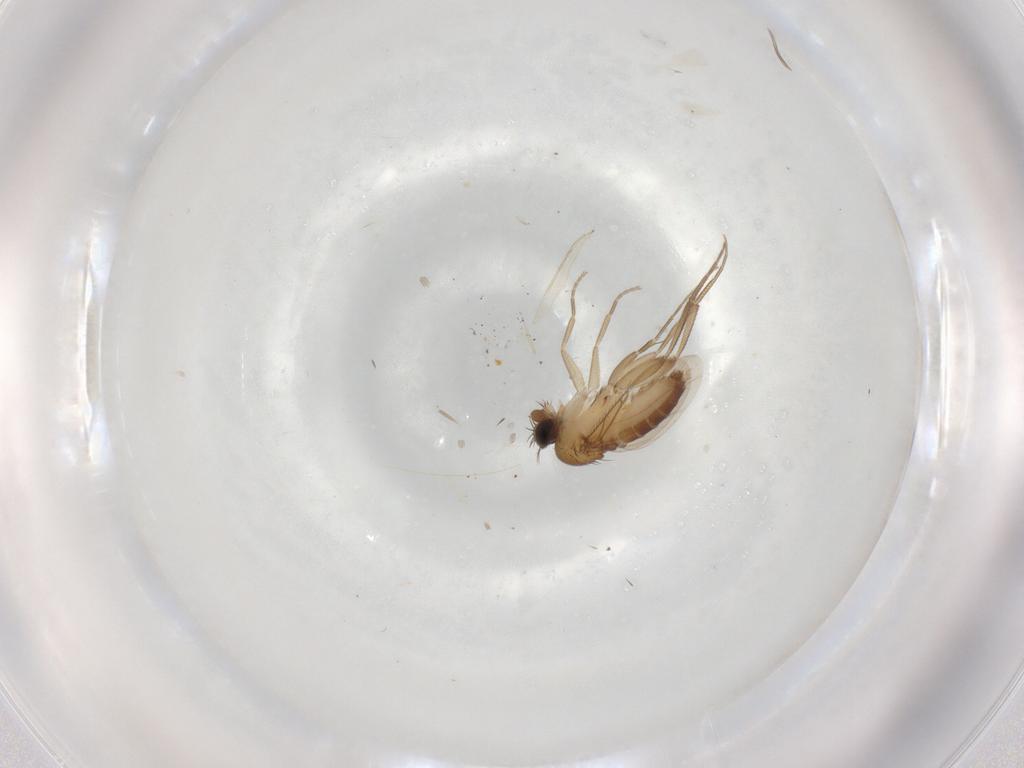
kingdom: Animalia
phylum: Arthropoda
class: Insecta
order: Diptera
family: Phoridae
